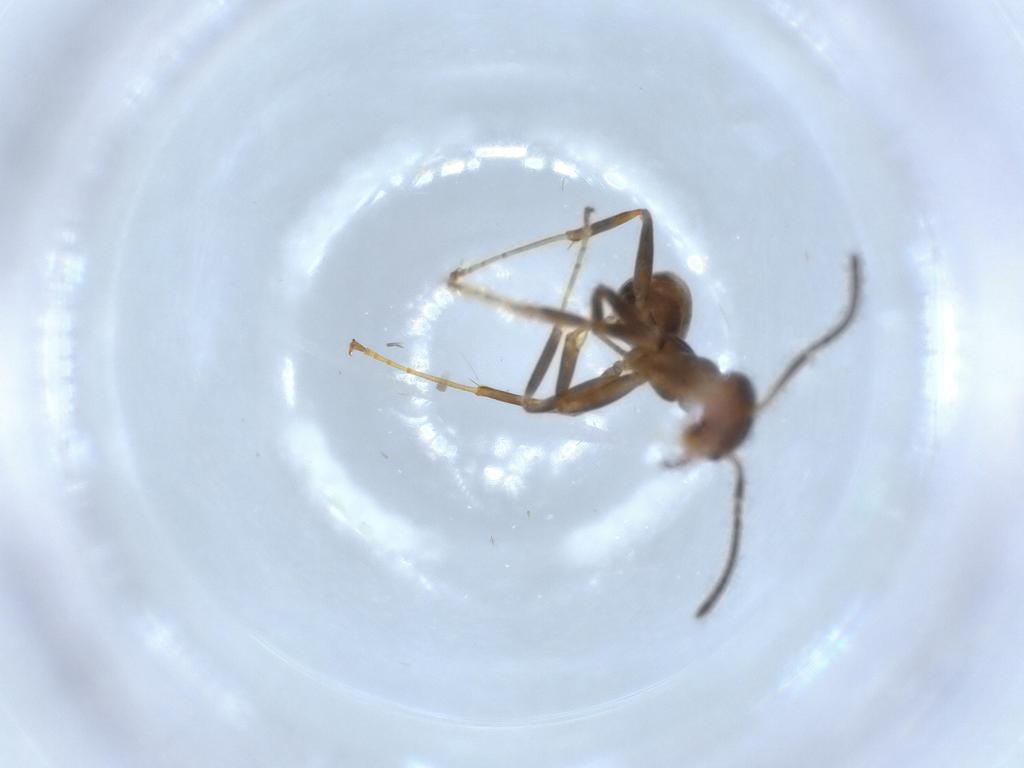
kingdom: Animalia
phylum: Arthropoda
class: Insecta
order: Hymenoptera
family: Formicidae
